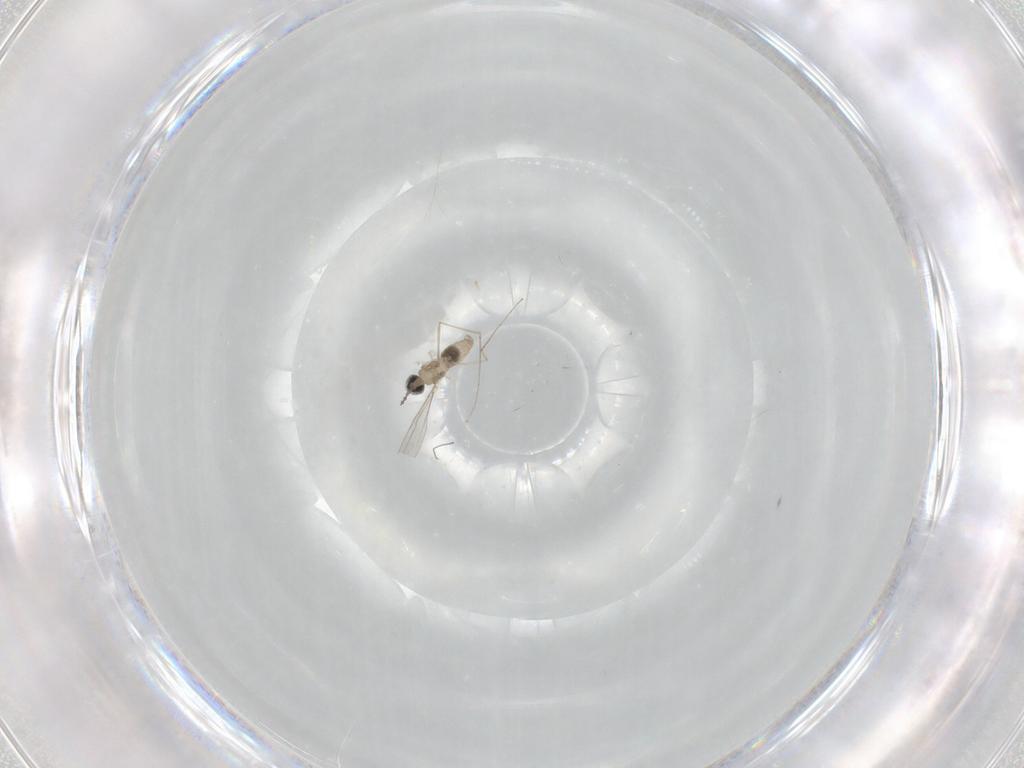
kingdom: Animalia
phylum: Arthropoda
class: Insecta
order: Diptera
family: Cecidomyiidae
